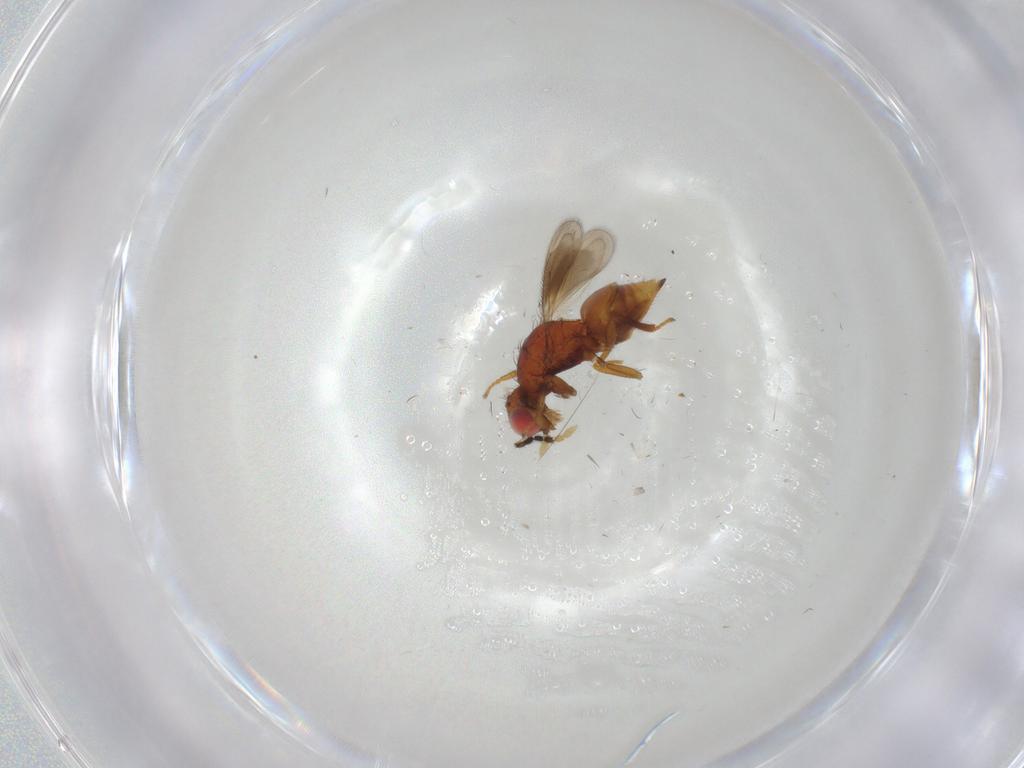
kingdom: Animalia
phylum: Arthropoda
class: Insecta
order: Hymenoptera
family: Eulophidae
